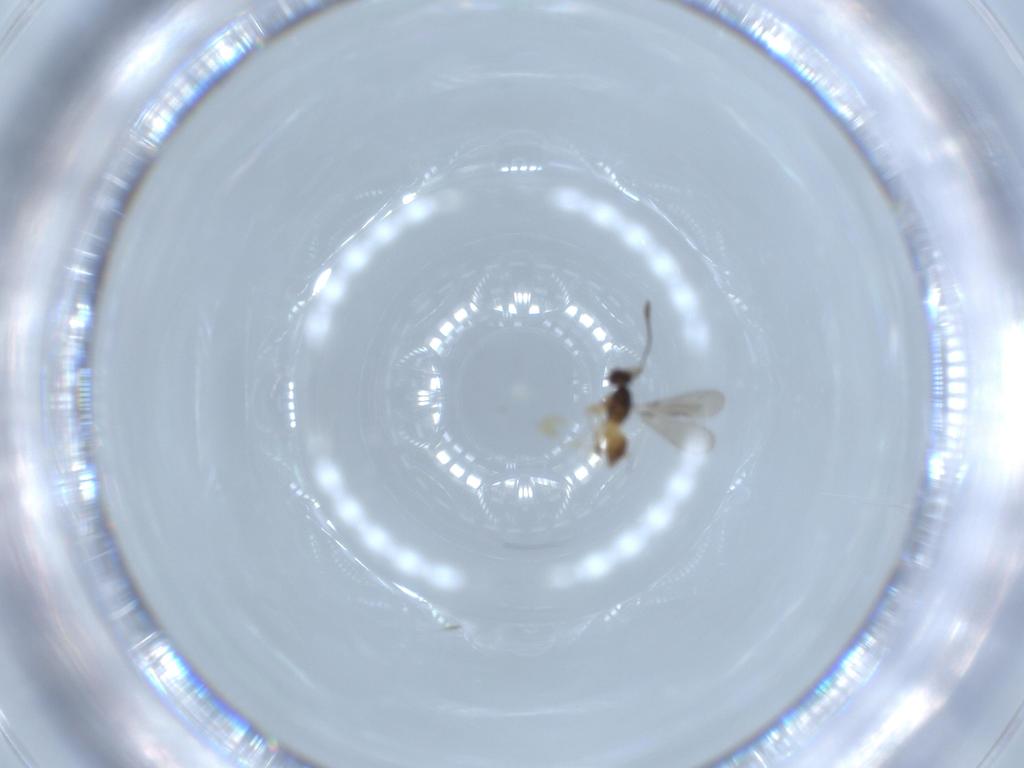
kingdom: Animalia
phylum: Arthropoda
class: Insecta
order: Hymenoptera
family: Mymaridae
